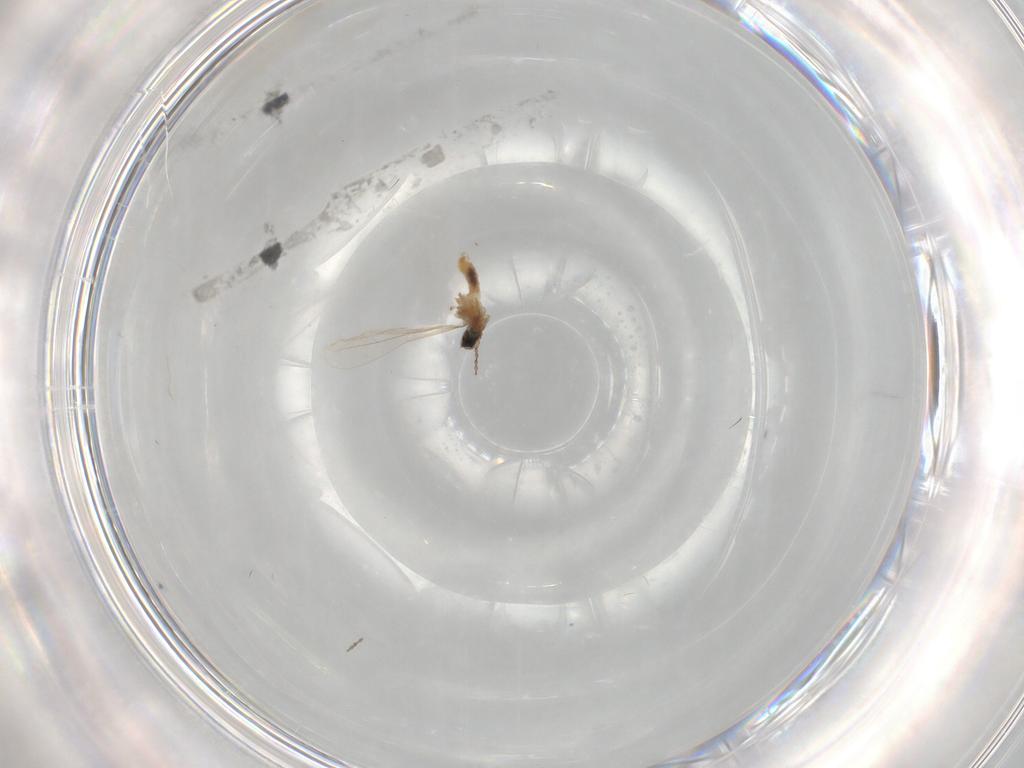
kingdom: Animalia
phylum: Arthropoda
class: Insecta
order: Diptera
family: Cecidomyiidae
